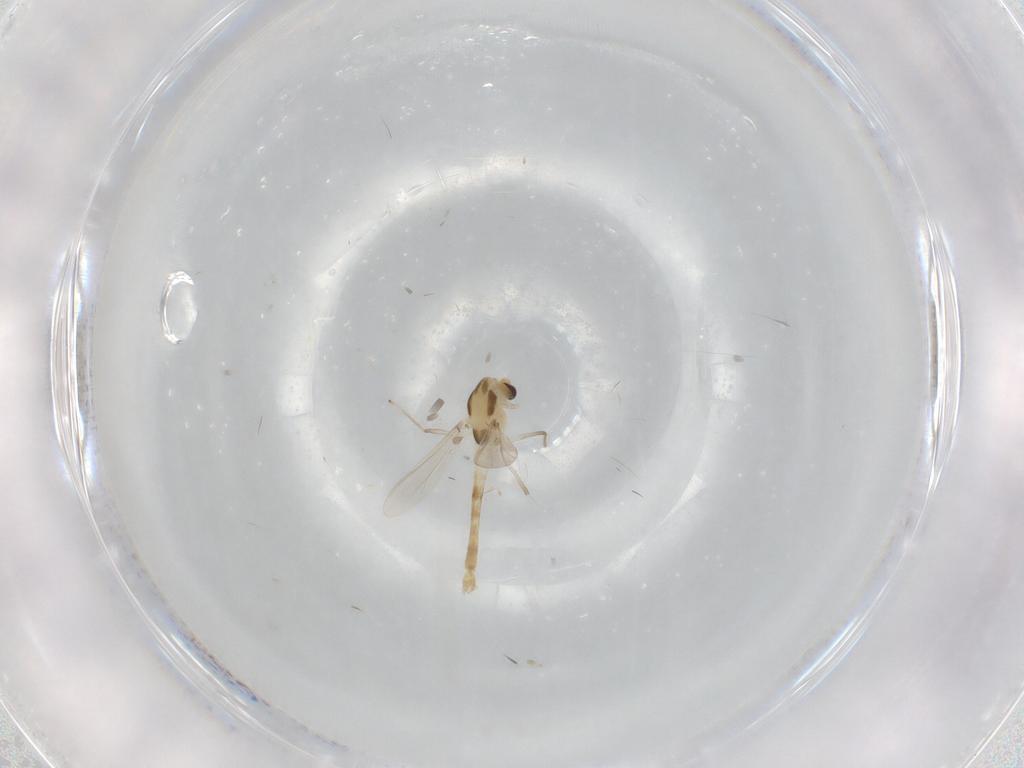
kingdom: Animalia
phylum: Arthropoda
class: Insecta
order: Diptera
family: Chironomidae
